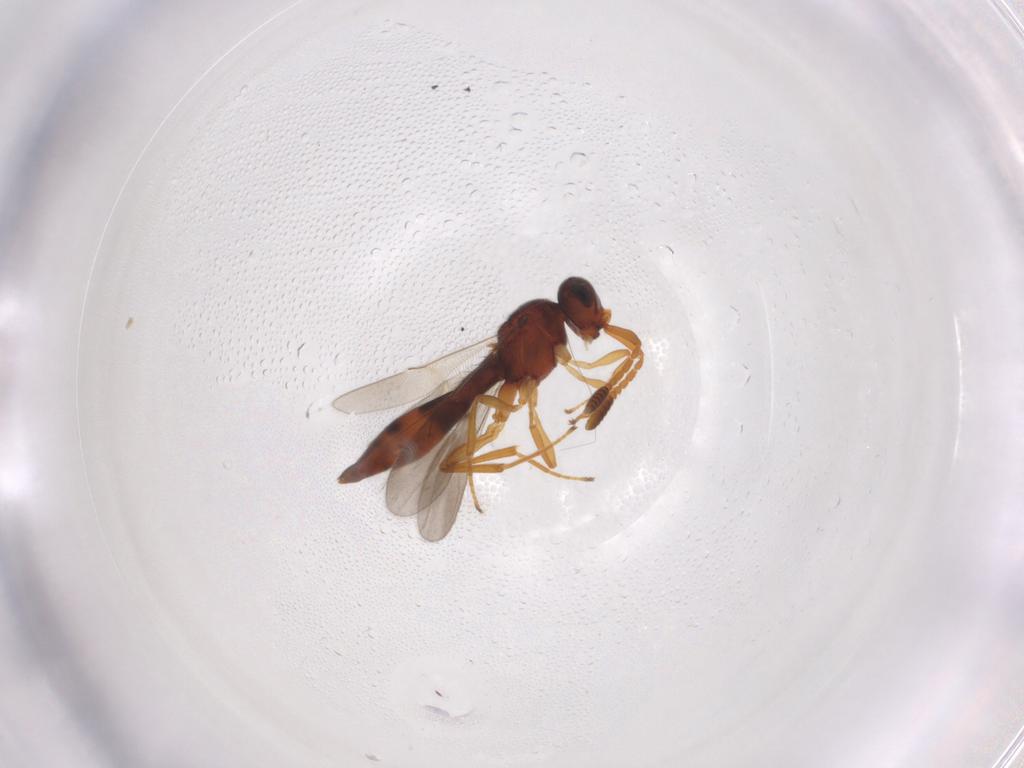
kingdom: Animalia
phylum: Arthropoda
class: Insecta
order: Hymenoptera
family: Scelionidae
